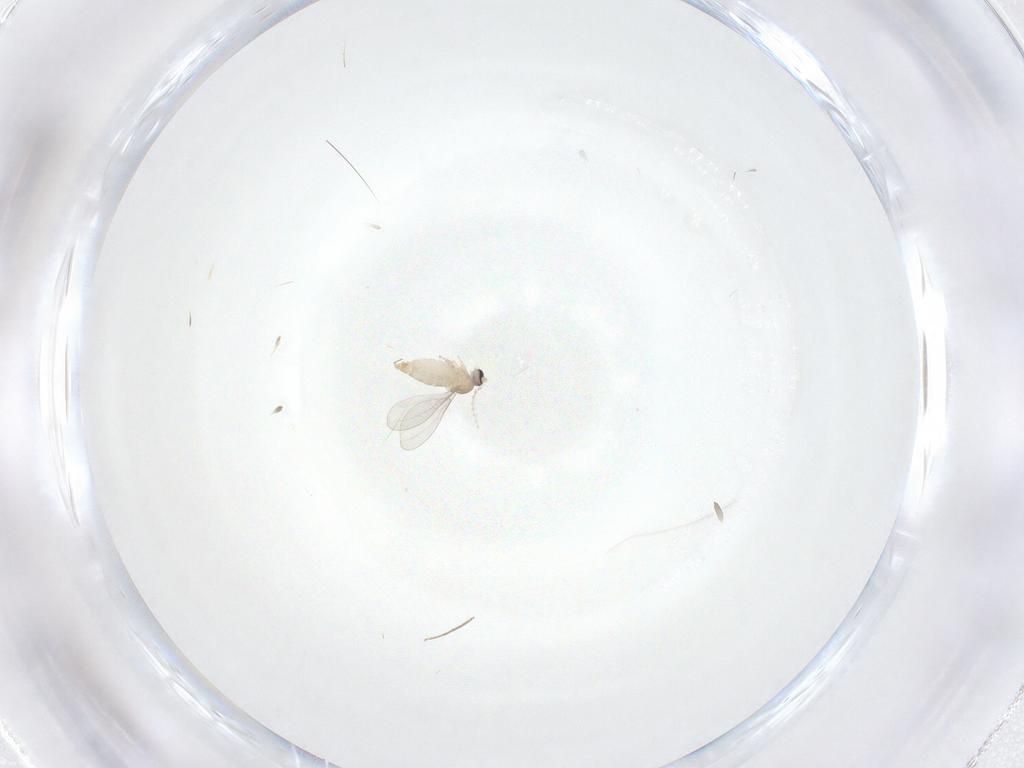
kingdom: Animalia
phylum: Arthropoda
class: Insecta
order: Diptera
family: Cecidomyiidae
